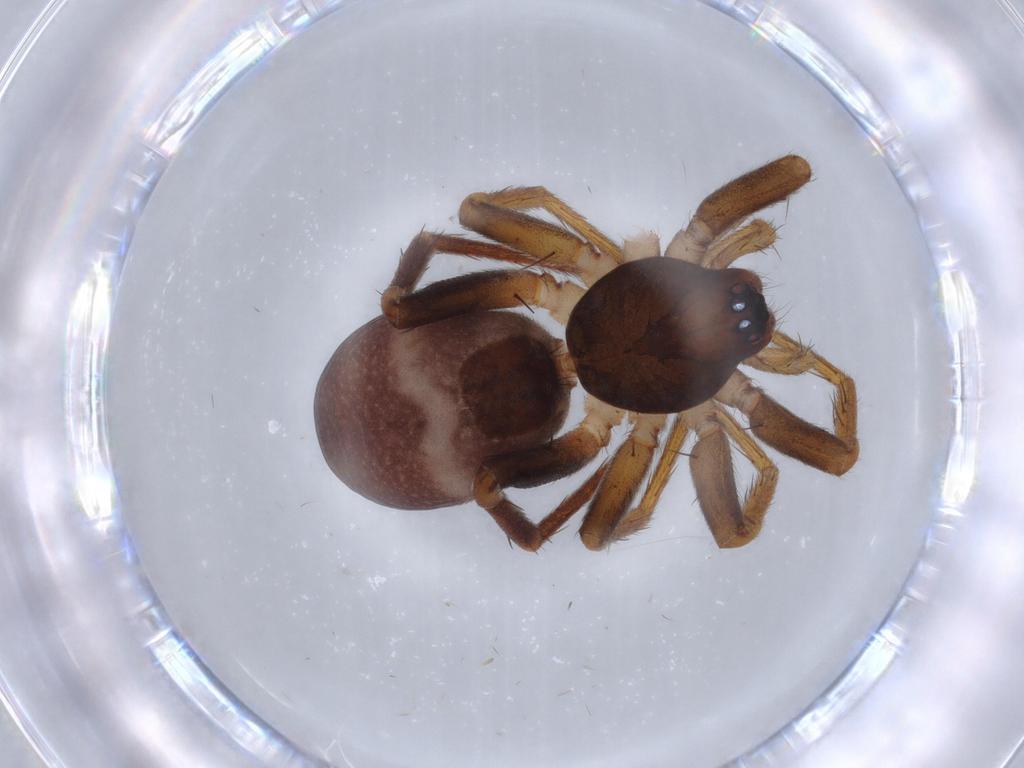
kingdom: Animalia
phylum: Arthropoda
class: Arachnida
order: Araneae
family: Corinnidae
